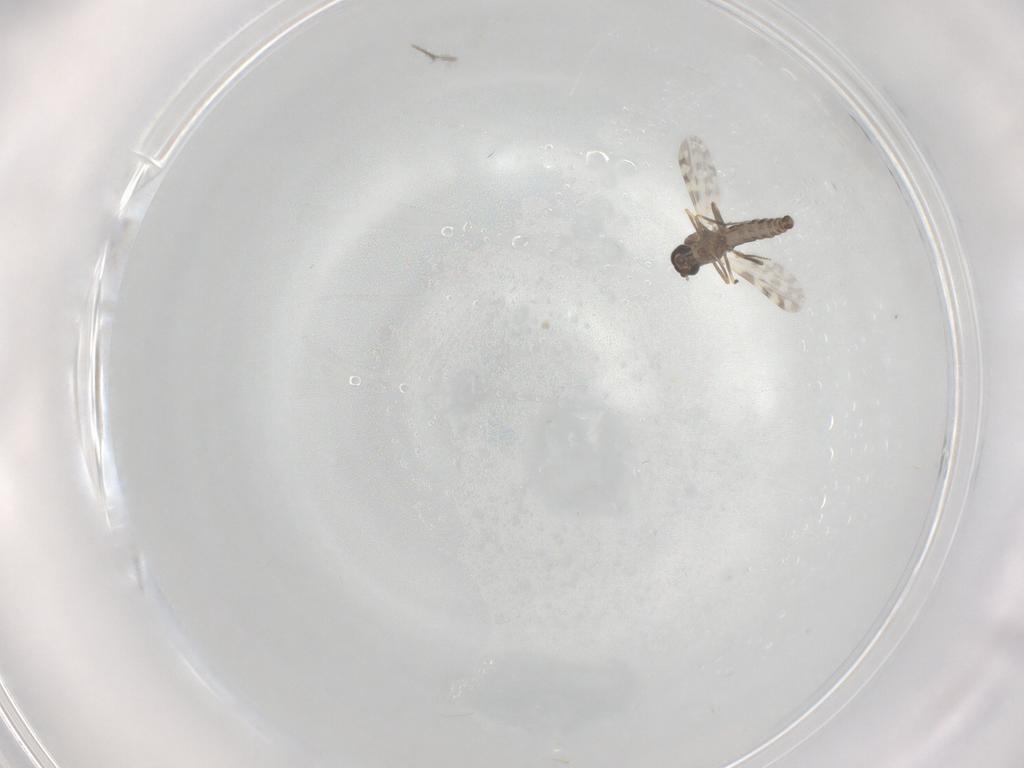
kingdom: Animalia
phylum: Arthropoda
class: Insecta
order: Diptera
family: Ceratopogonidae
